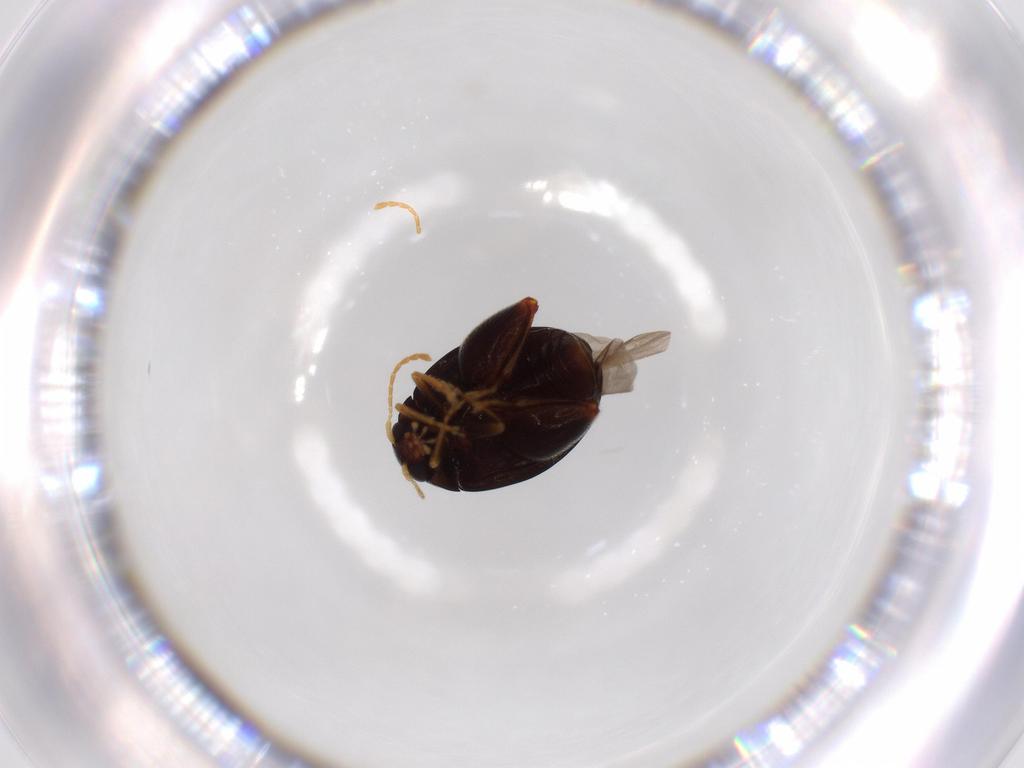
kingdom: Animalia
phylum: Arthropoda
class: Insecta
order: Coleoptera
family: Chrysomelidae
